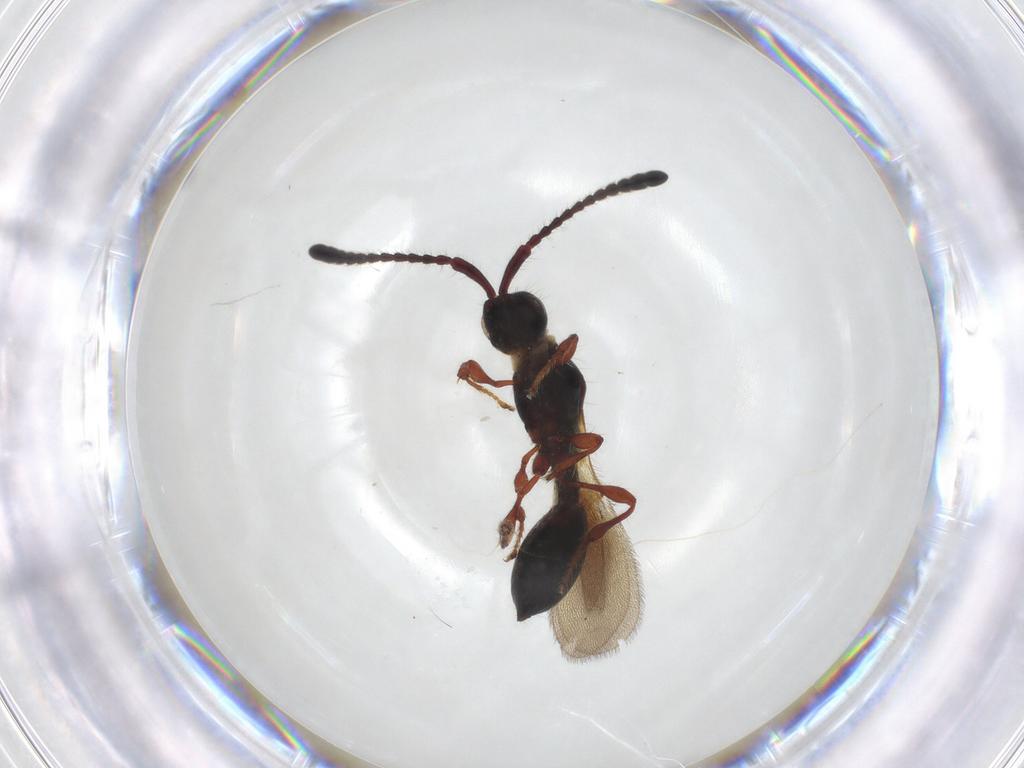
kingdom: Animalia
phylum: Arthropoda
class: Insecta
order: Hymenoptera
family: Diapriidae
